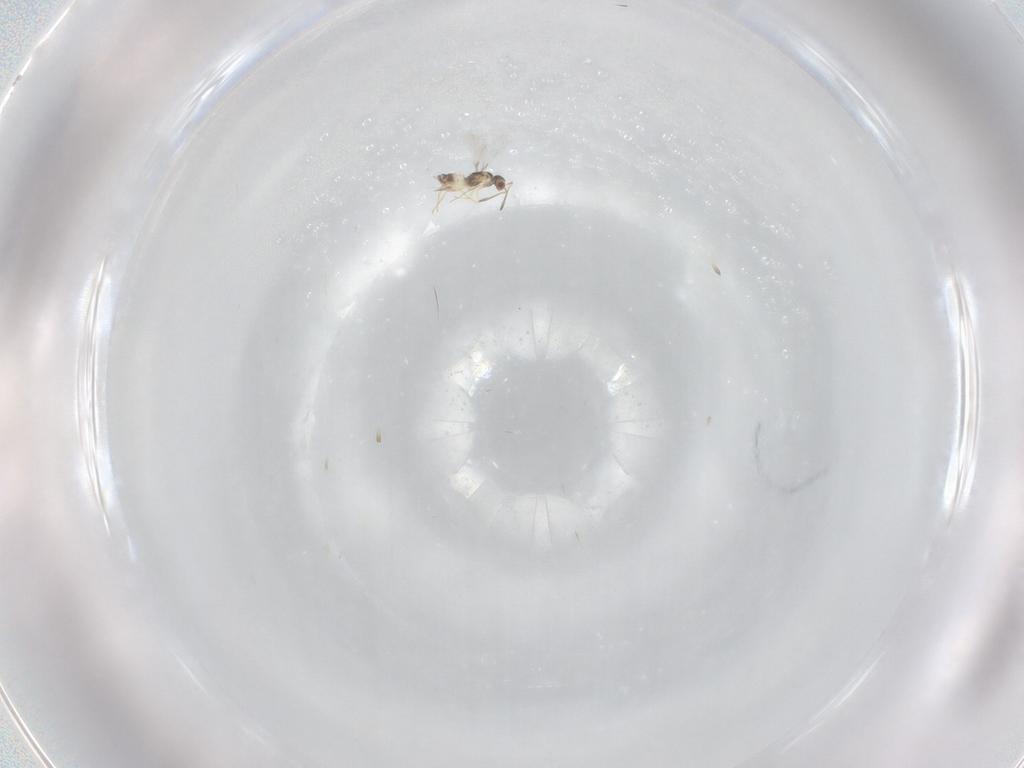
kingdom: Animalia
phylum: Arthropoda
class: Insecta
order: Hymenoptera
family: Mymaridae
